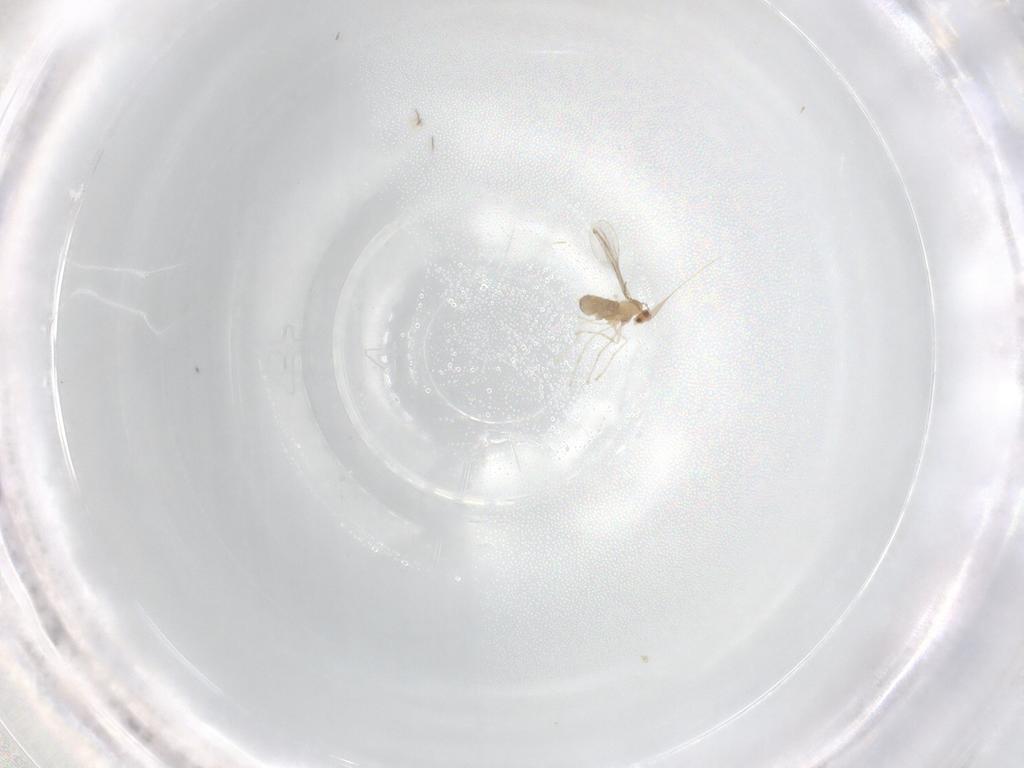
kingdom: Animalia
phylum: Arthropoda
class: Insecta
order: Diptera
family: Cecidomyiidae
